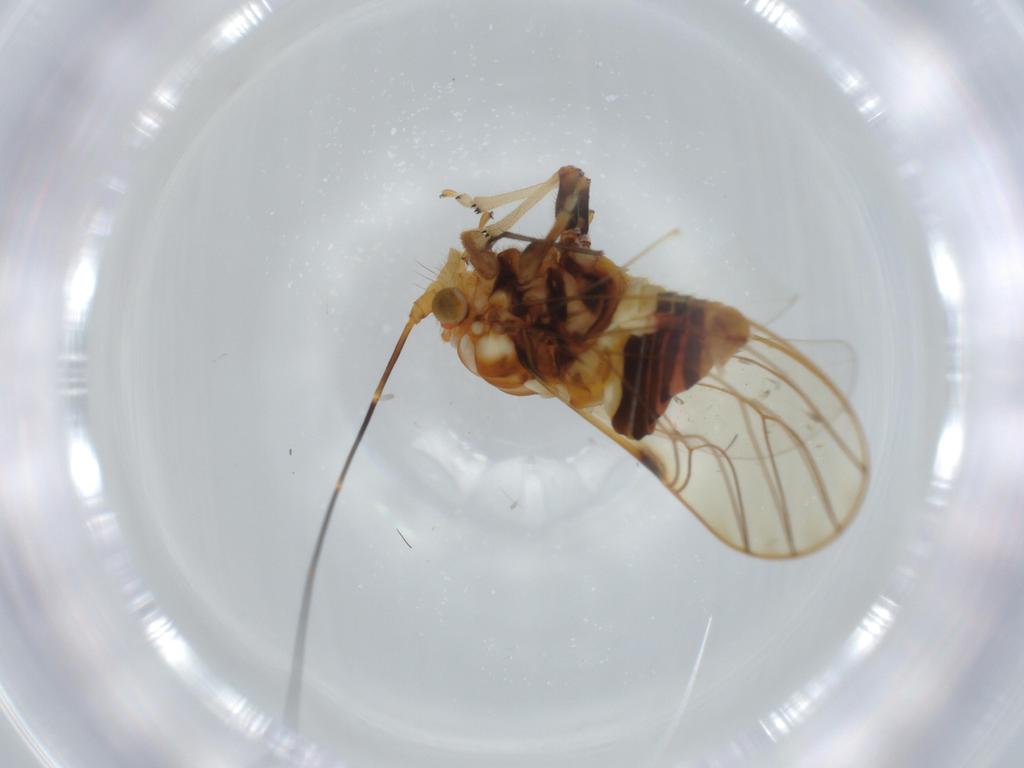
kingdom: Animalia
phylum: Arthropoda
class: Insecta
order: Hemiptera
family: Psyllidae
